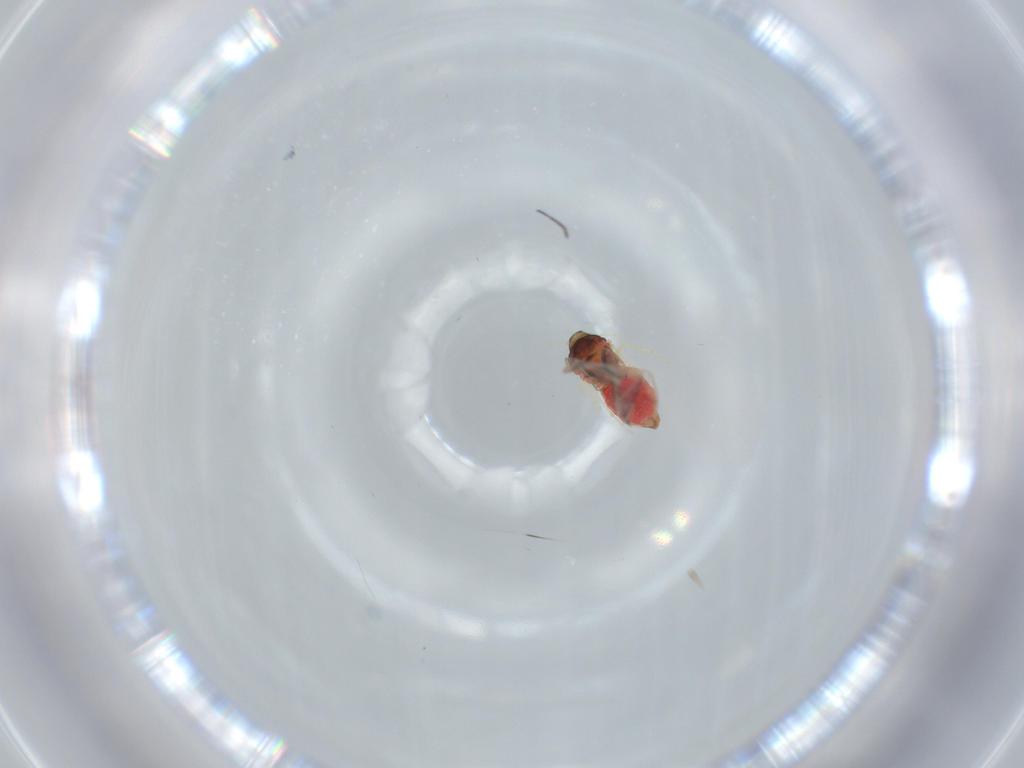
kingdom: Animalia
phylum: Arthropoda
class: Insecta
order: Hemiptera
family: Aleyrodidae
